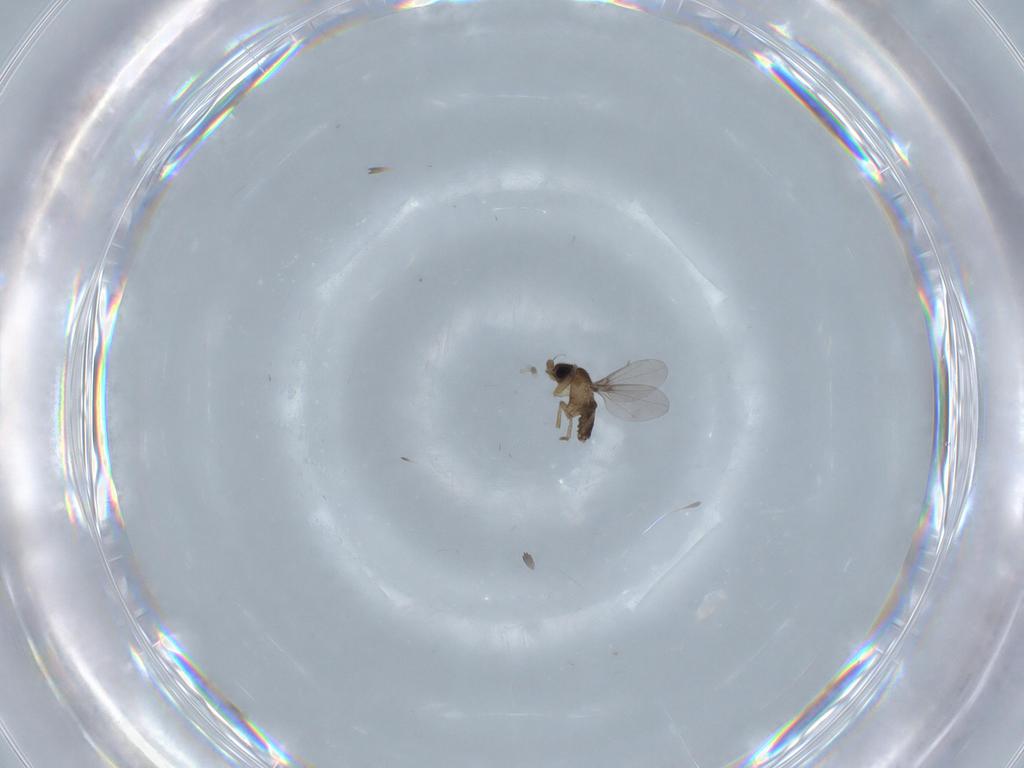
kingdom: Animalia
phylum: Arthropoda
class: Insecta
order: Diptera
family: Phoridae
